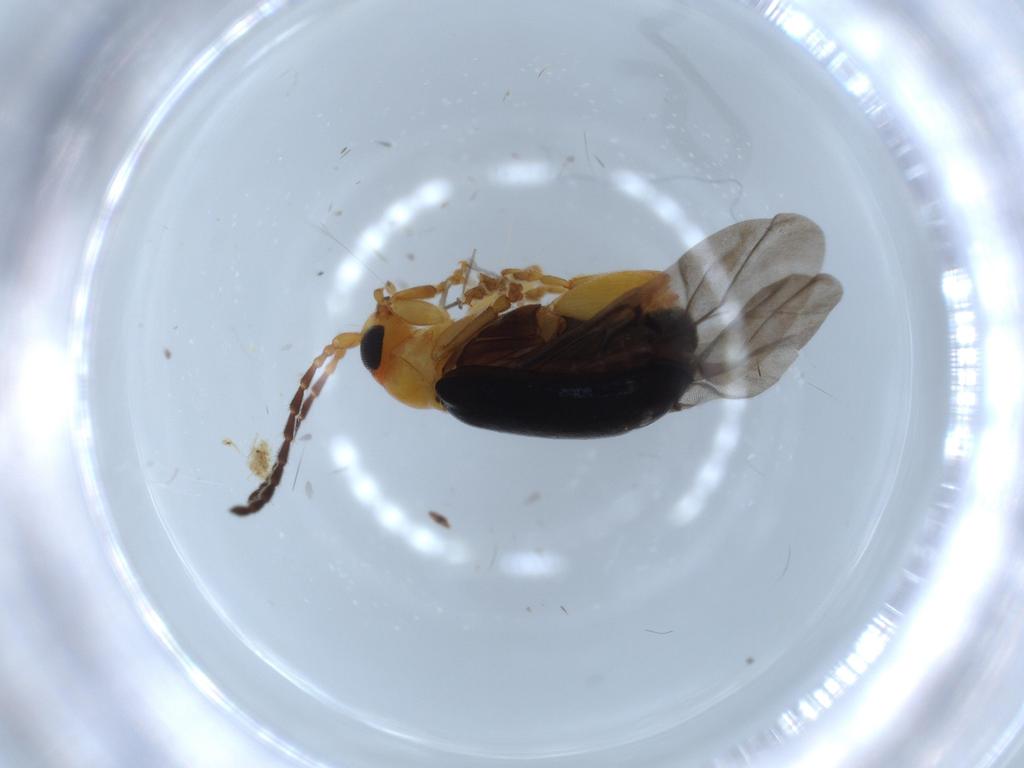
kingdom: Animalia
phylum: Arthropoda
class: Insecta
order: Coleoptera
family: Chrysomelidae
